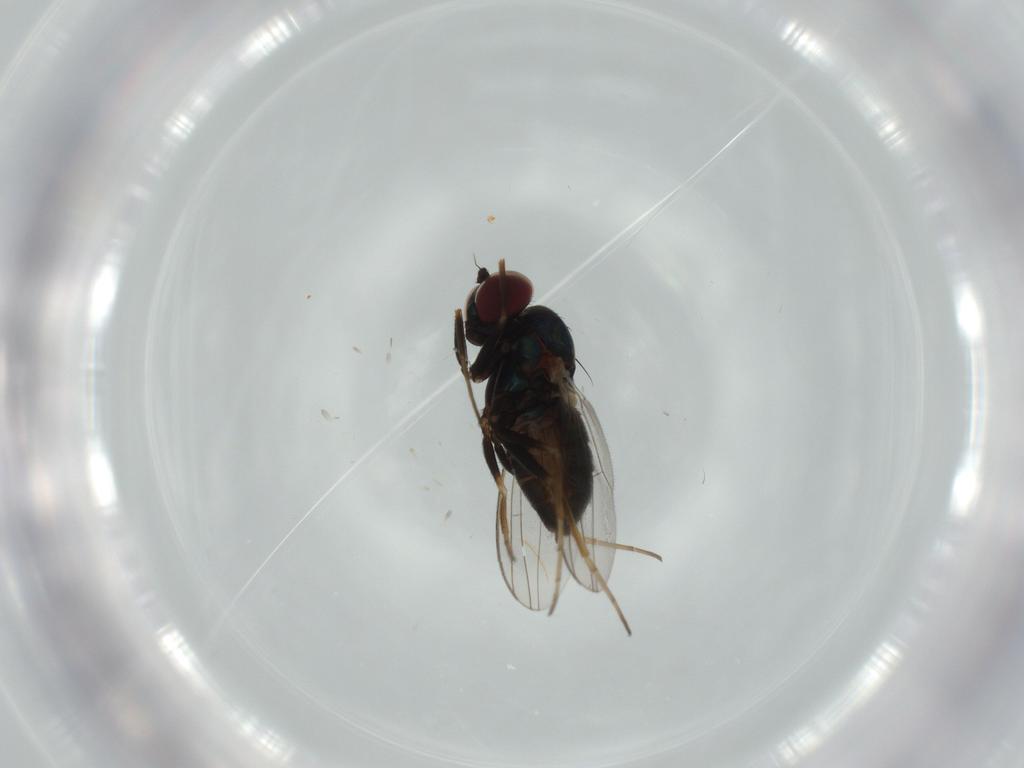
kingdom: Animalia
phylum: Arthropoda
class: Insecta
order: Diptera
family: Dolichopodidae
